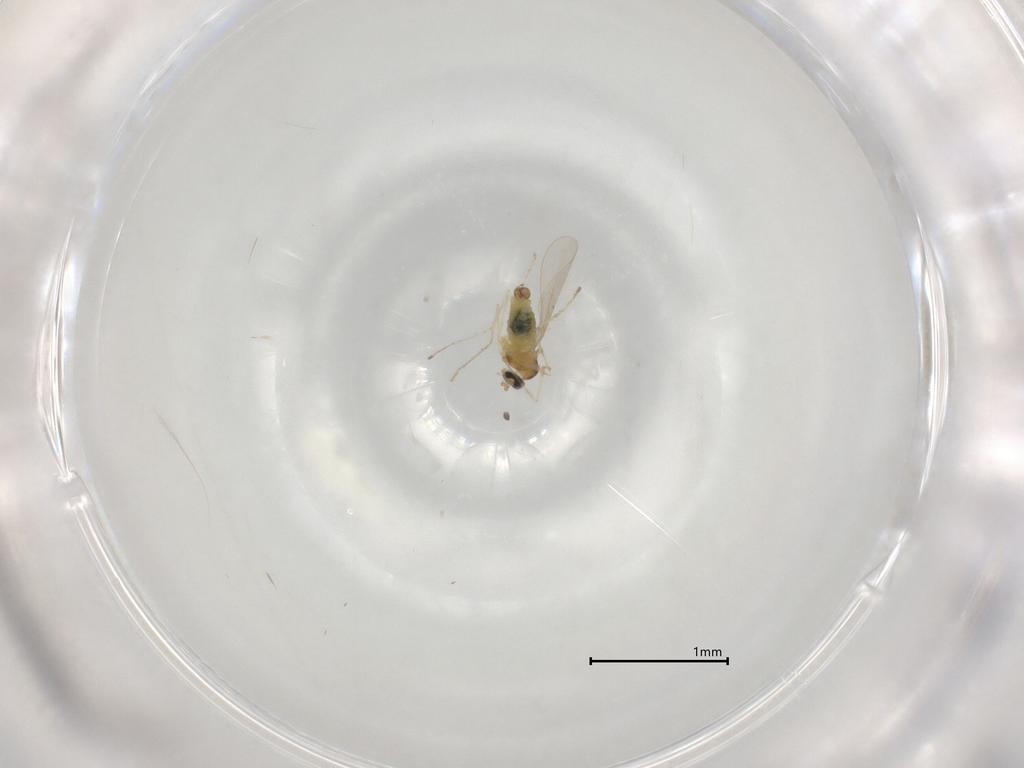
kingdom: Animalia
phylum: Arthropoda
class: Insecta
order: Diptera
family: Cecidomyiidae
